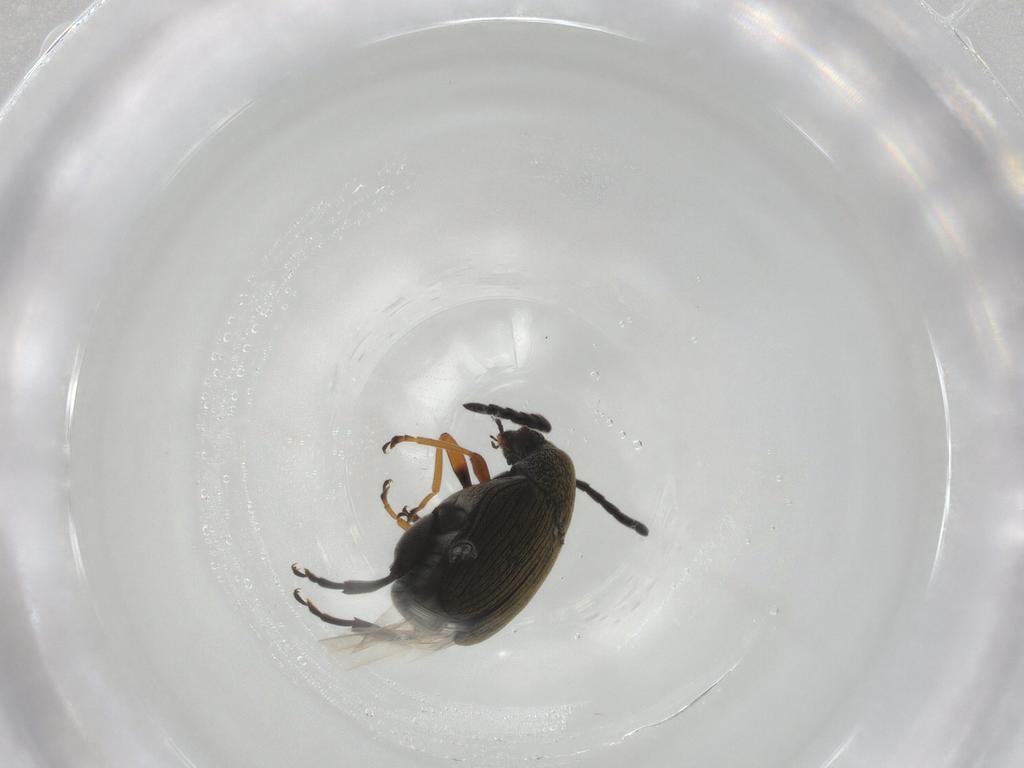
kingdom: Animalia
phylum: Arthropoda
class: Insecta
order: Coleoptera
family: Chrysomelidae
